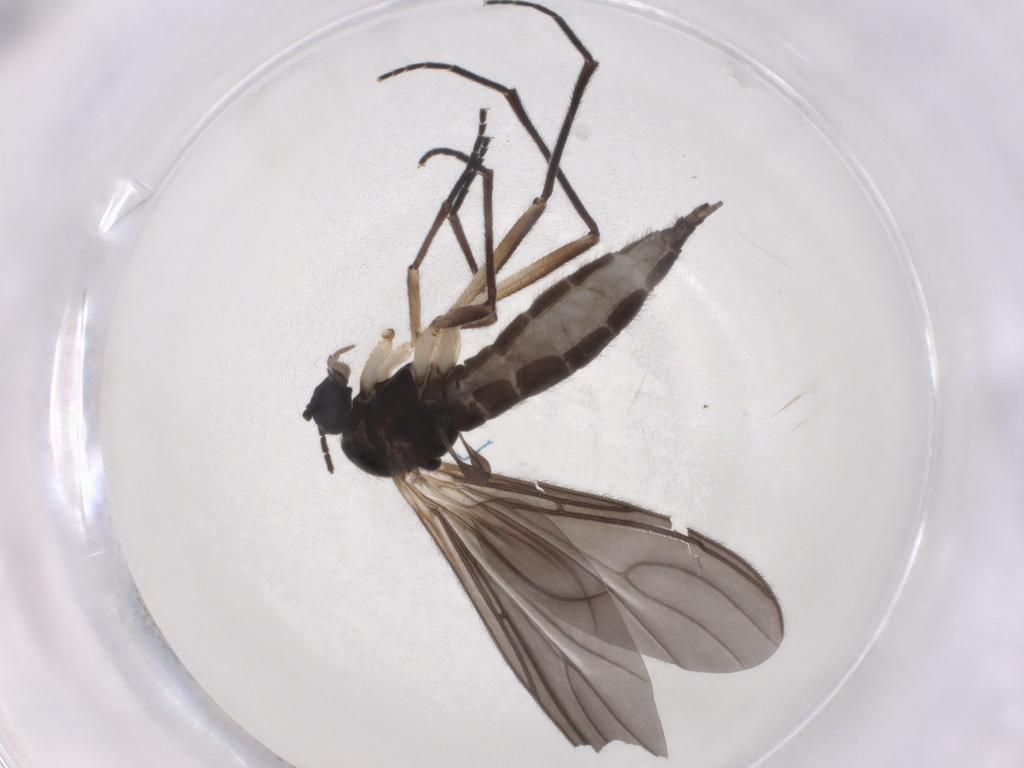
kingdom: Animalia
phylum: Arthropoda
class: Insecta
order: Diptera
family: Sciaridae
